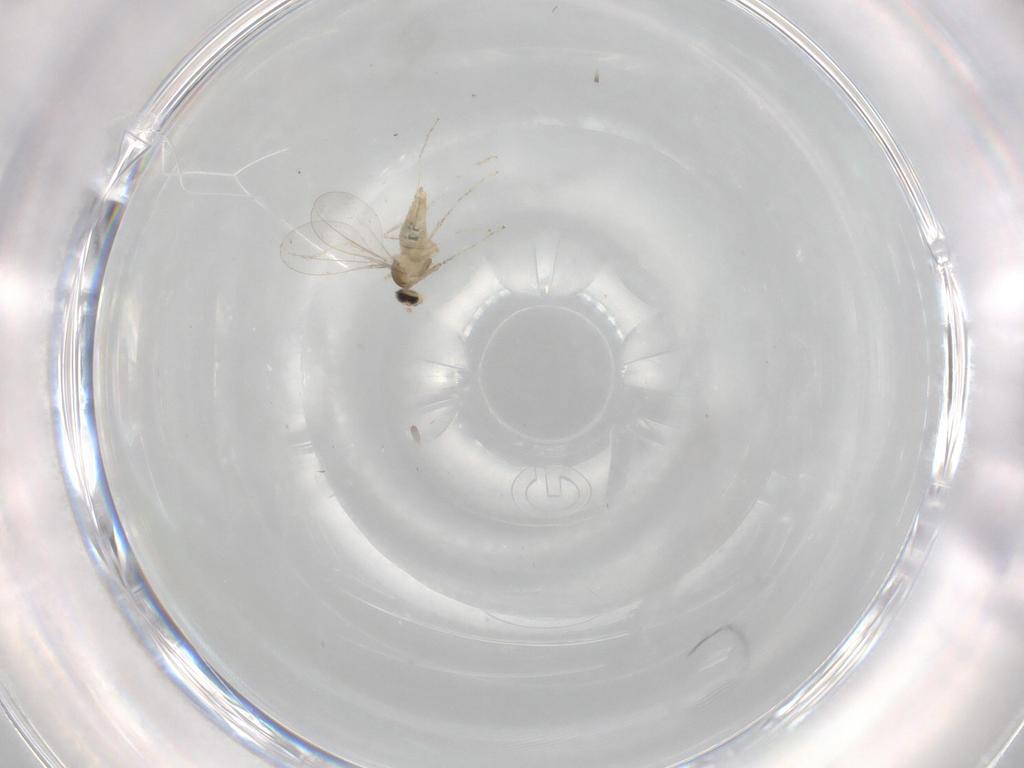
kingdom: Animalia
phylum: Arthropoda
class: Insecta
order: Diptera
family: Cecidomyiidae
